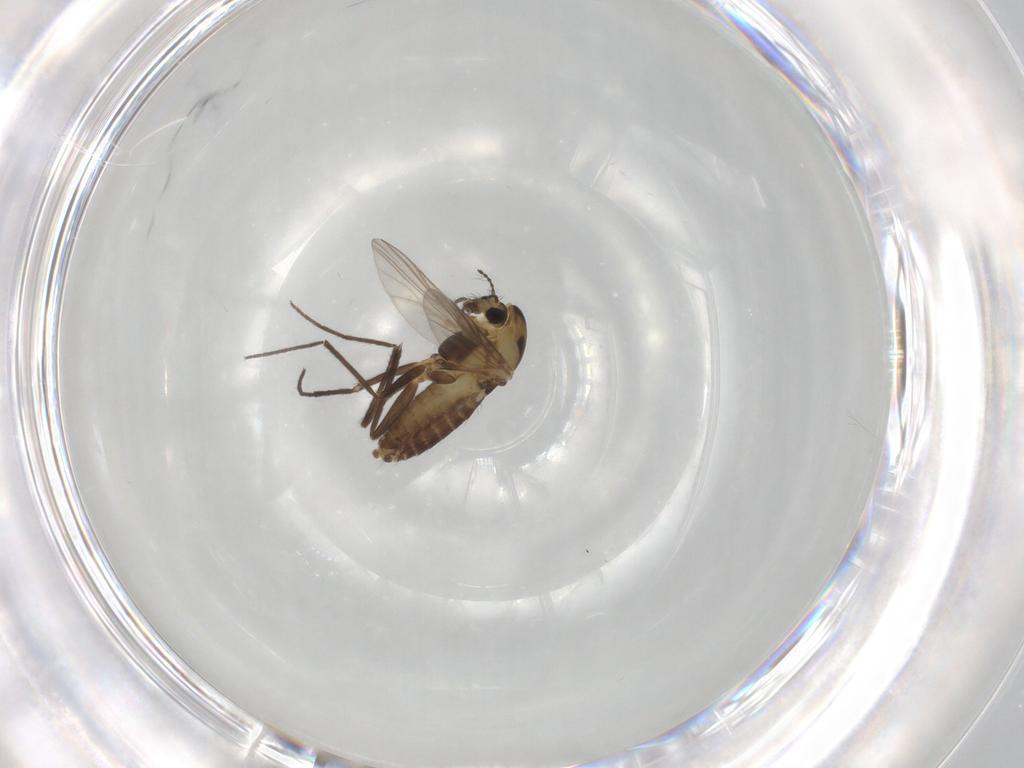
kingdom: Animalia
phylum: Arthropoda
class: Insecta
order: Diptera
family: Chironomidae
